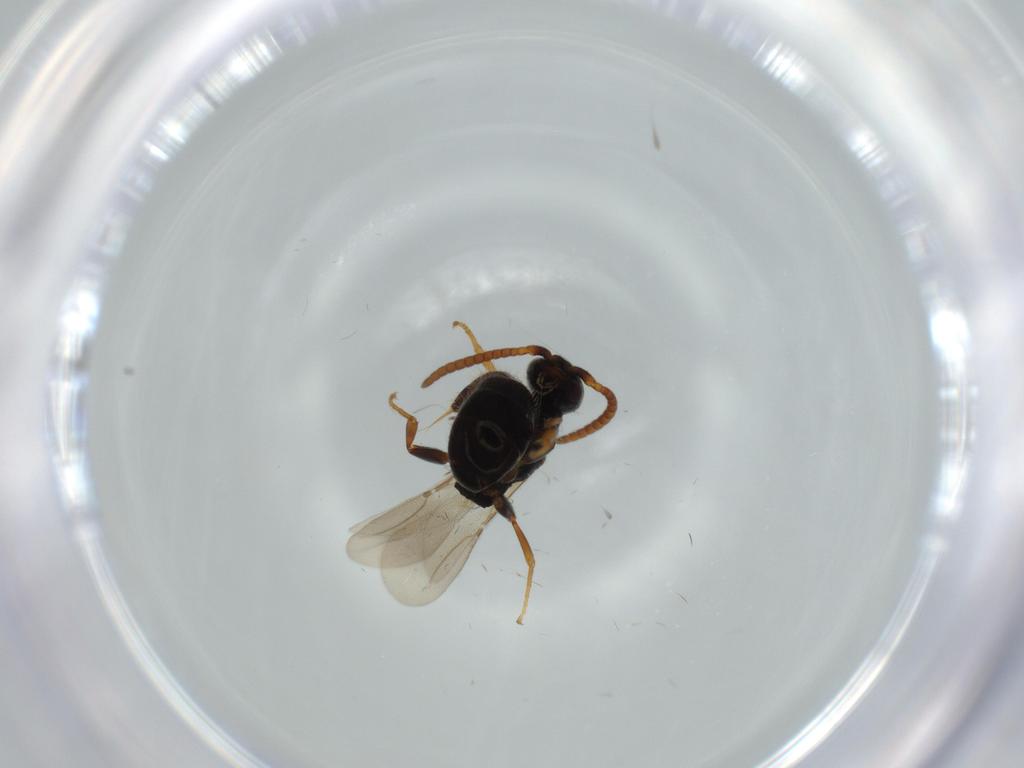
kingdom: Animalia
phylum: Arthropoda
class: Insecta
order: Hymenoptera
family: Bethylidae
